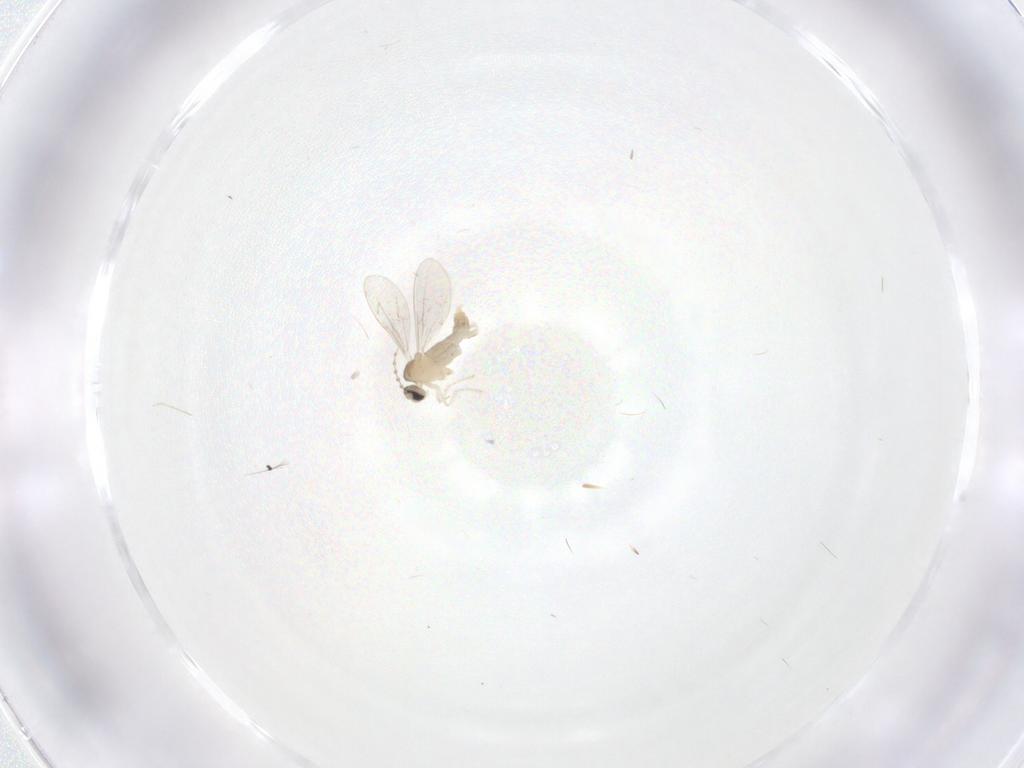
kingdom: Animalia
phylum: Arthropoda
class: Insecta
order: Diptera
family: Cecidomyiidae
